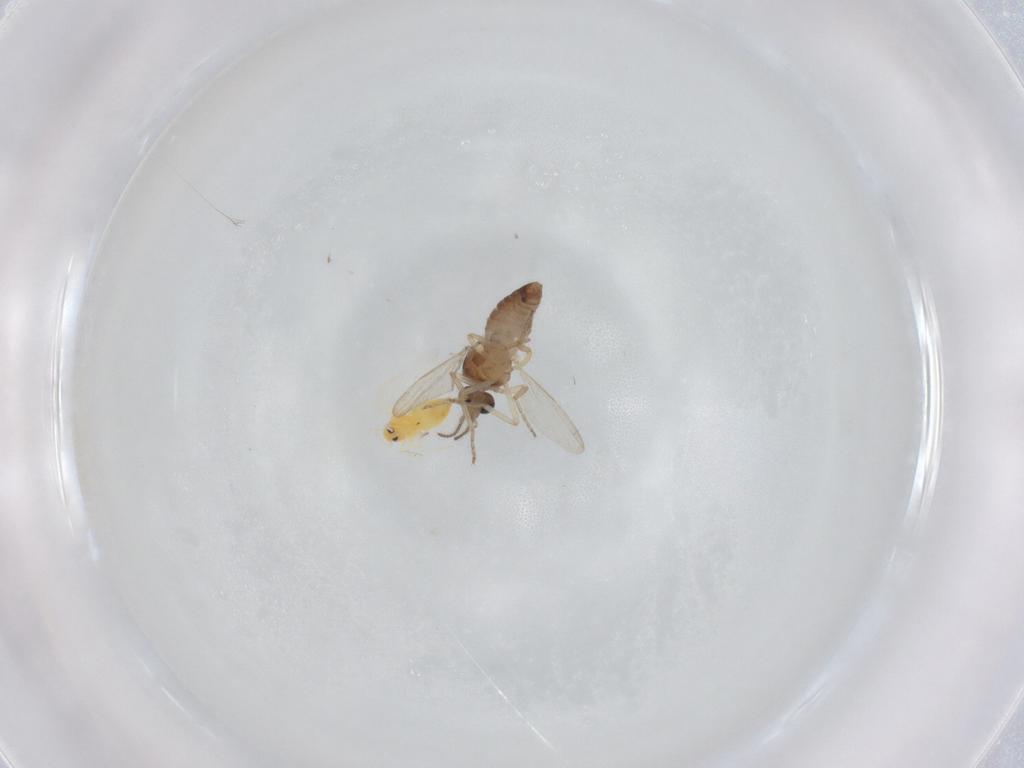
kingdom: Animalia
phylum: Arthropoda
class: Insecta
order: Diptera
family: Ceratopogonidae
